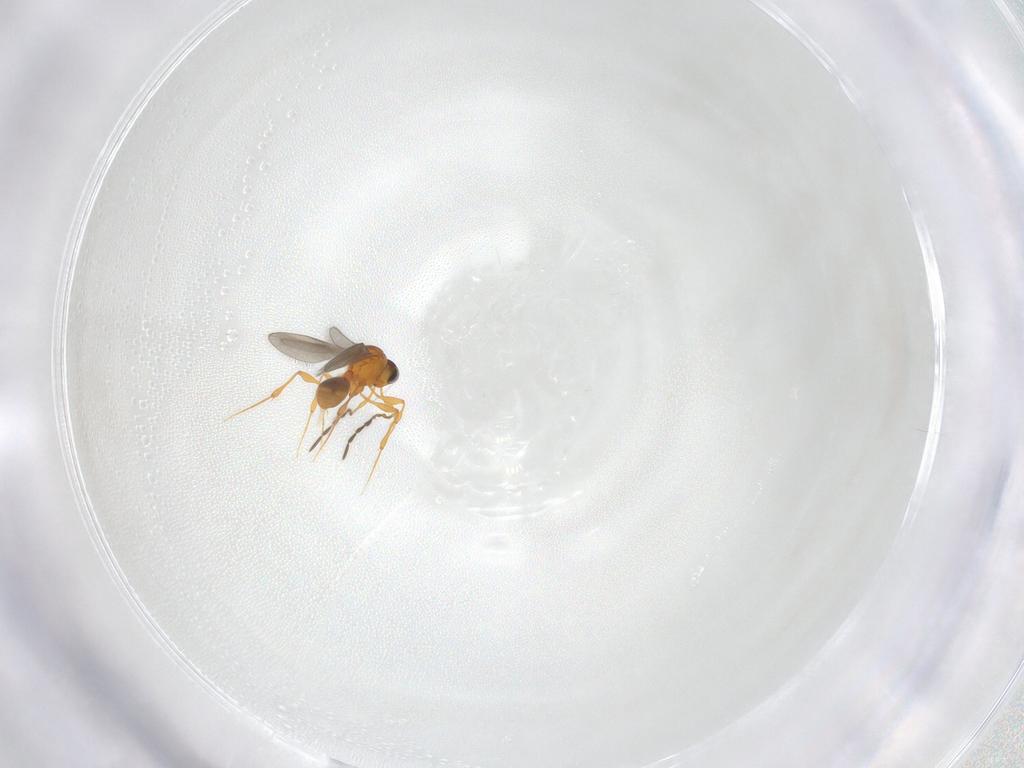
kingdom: Animalia
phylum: Arthropoda
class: Insecta
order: Hymenoptera
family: Platygastridae
